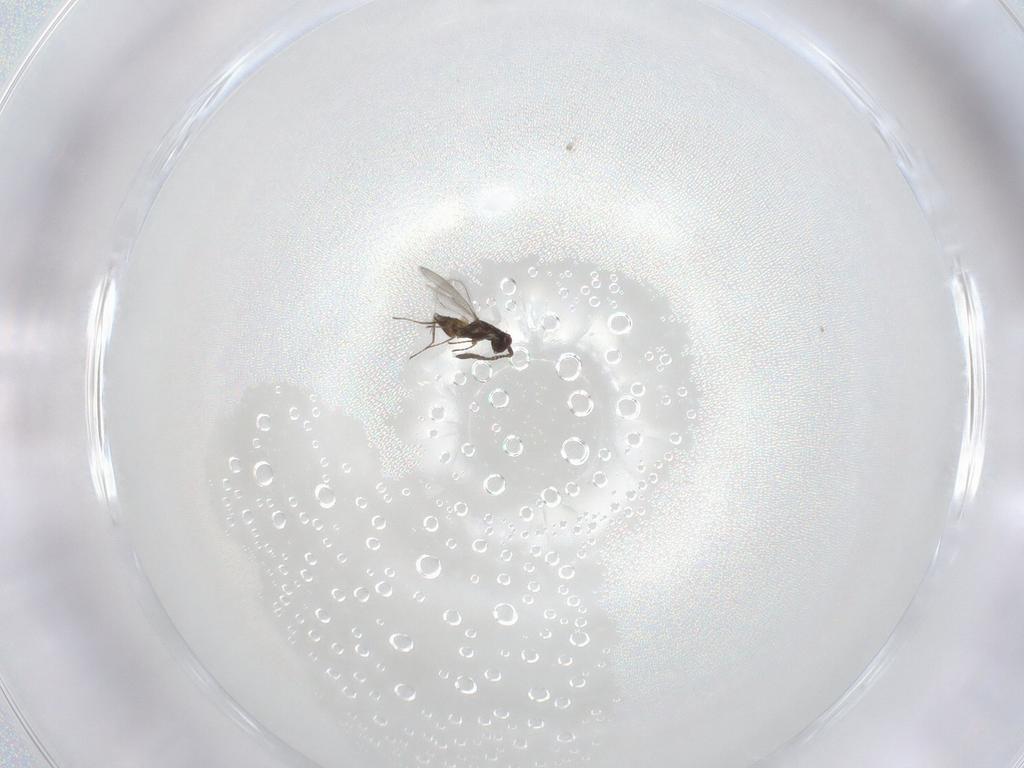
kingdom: Animalia
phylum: Arthropoda
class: Insecta
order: Hymenoptera
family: Mymaridae
